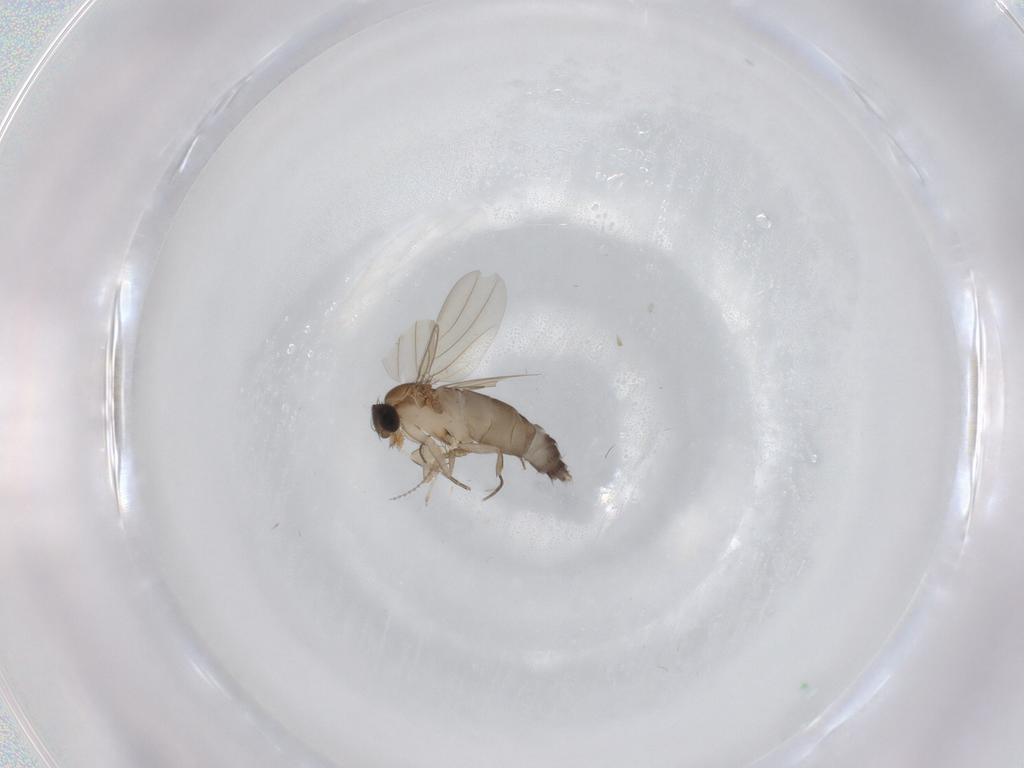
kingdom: Animalia
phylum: Arthropoda
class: Insecta
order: Diptera
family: Phoridae
